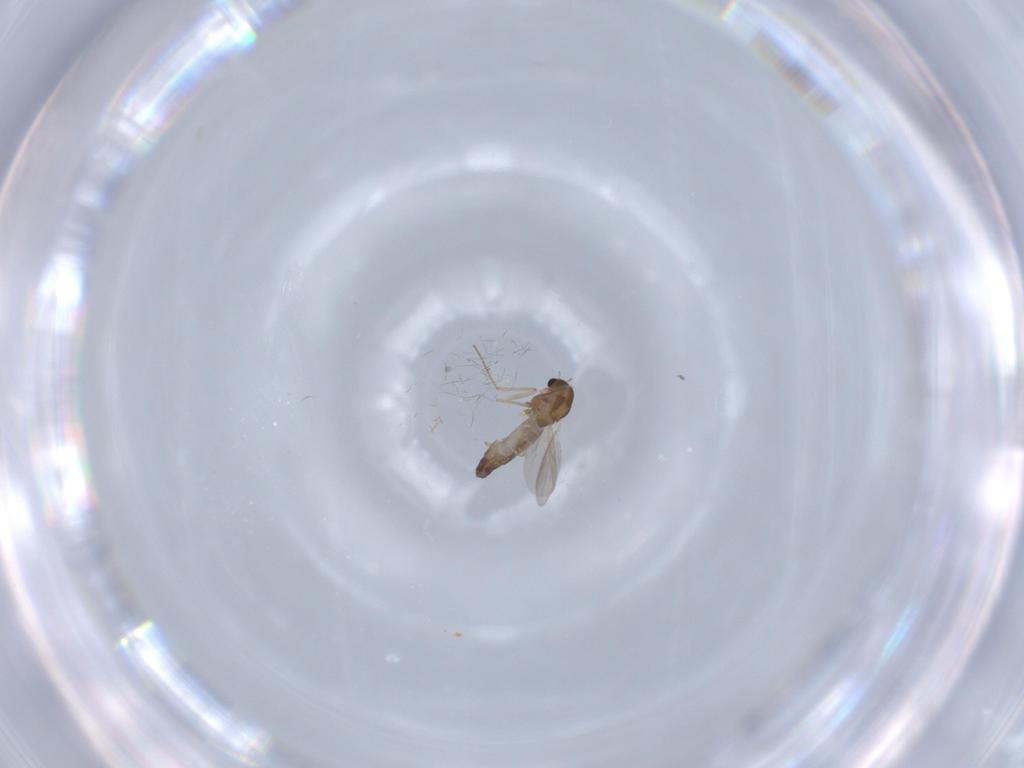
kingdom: Animalia
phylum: Arthropoda
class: Insecta
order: Diptera
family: Chironomidae
